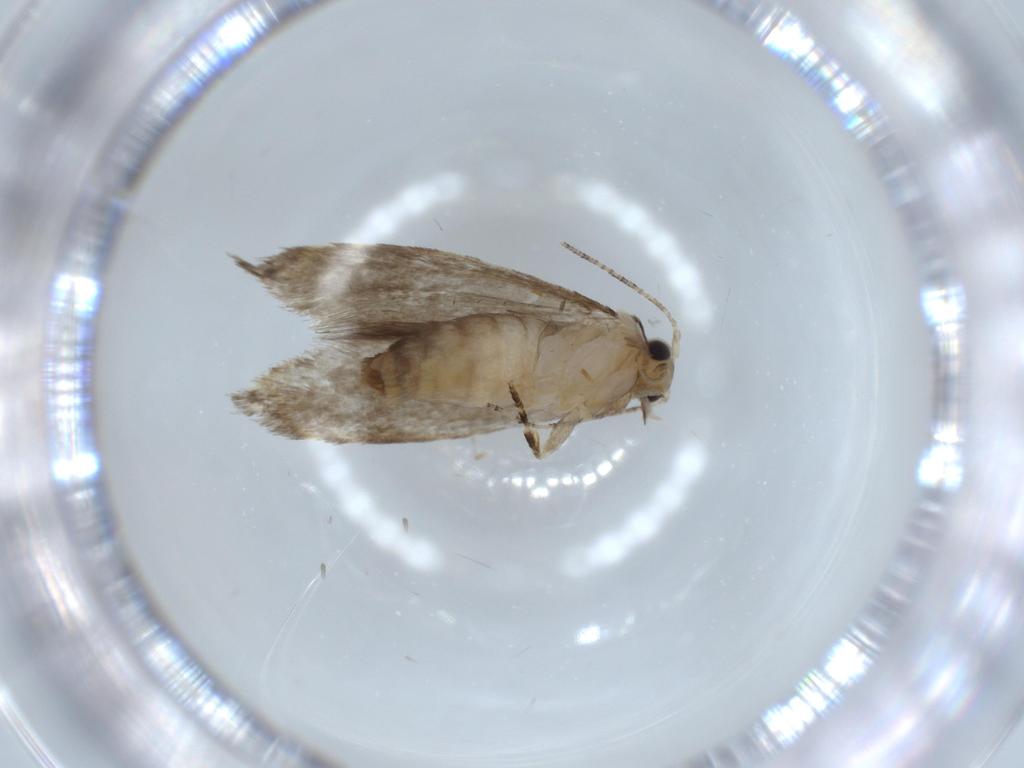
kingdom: Animalia
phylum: Arthropoda
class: Insecta
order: Lepidoptera
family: Tineidae
